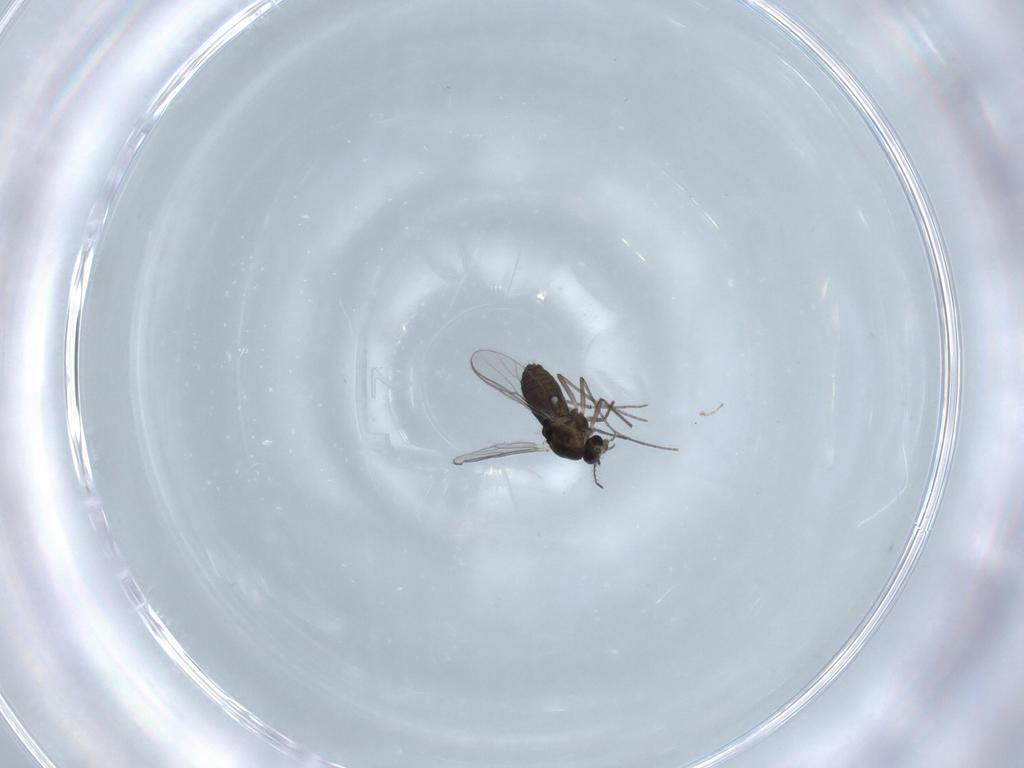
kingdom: Animalia
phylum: Arthropoda
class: Insecta
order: Diptera
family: Chironomidae
